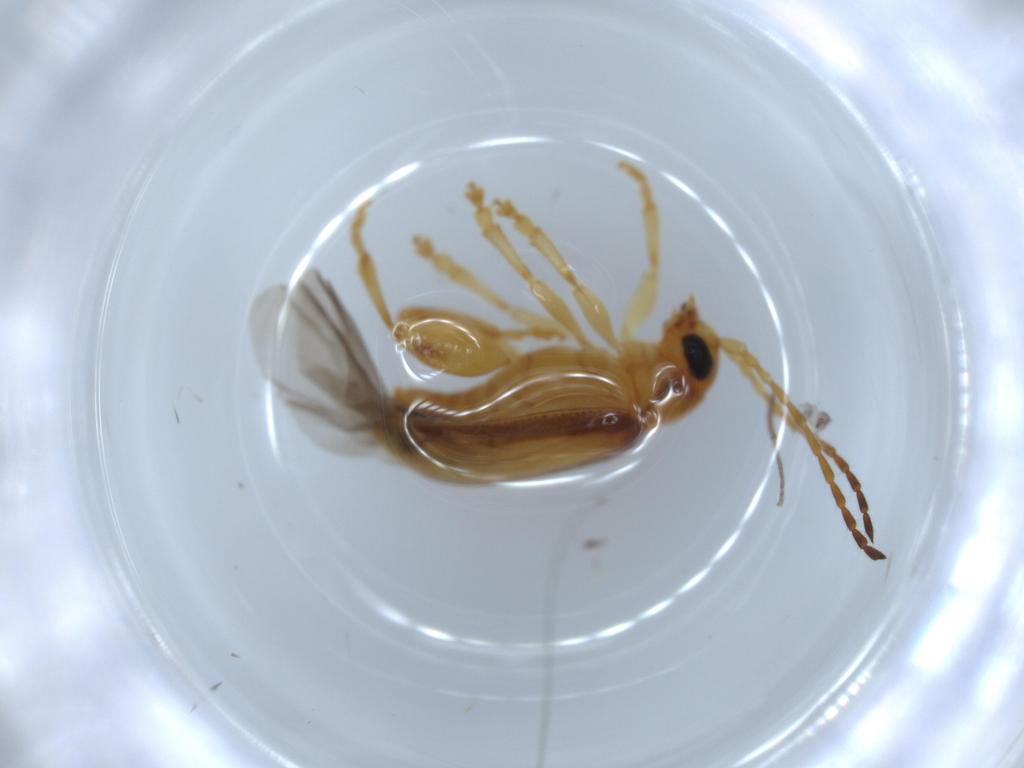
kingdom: Animalia
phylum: Arthropoda
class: Insecta
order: Coleoptera
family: Chrysomelidae
